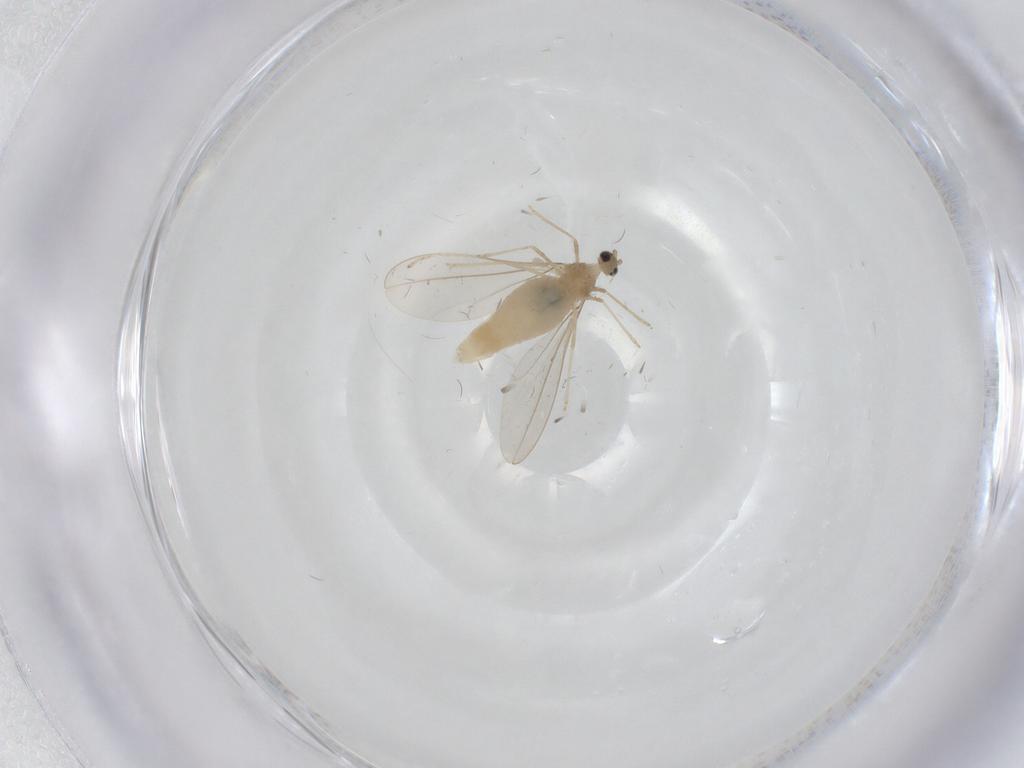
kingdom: Animalia
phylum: Arthropoda
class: Insecta
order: Diptera
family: Cecidomyiidae
